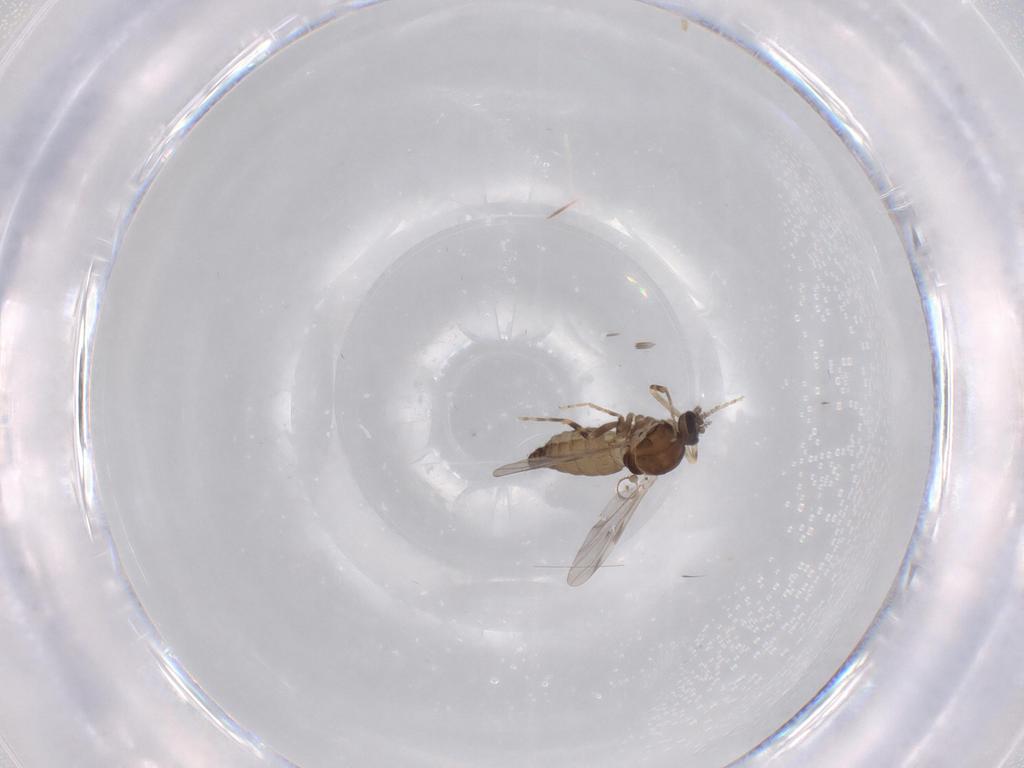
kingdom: Animalia
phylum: Arthropoda
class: Insecta
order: Diptera
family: Ceratopogonidae
